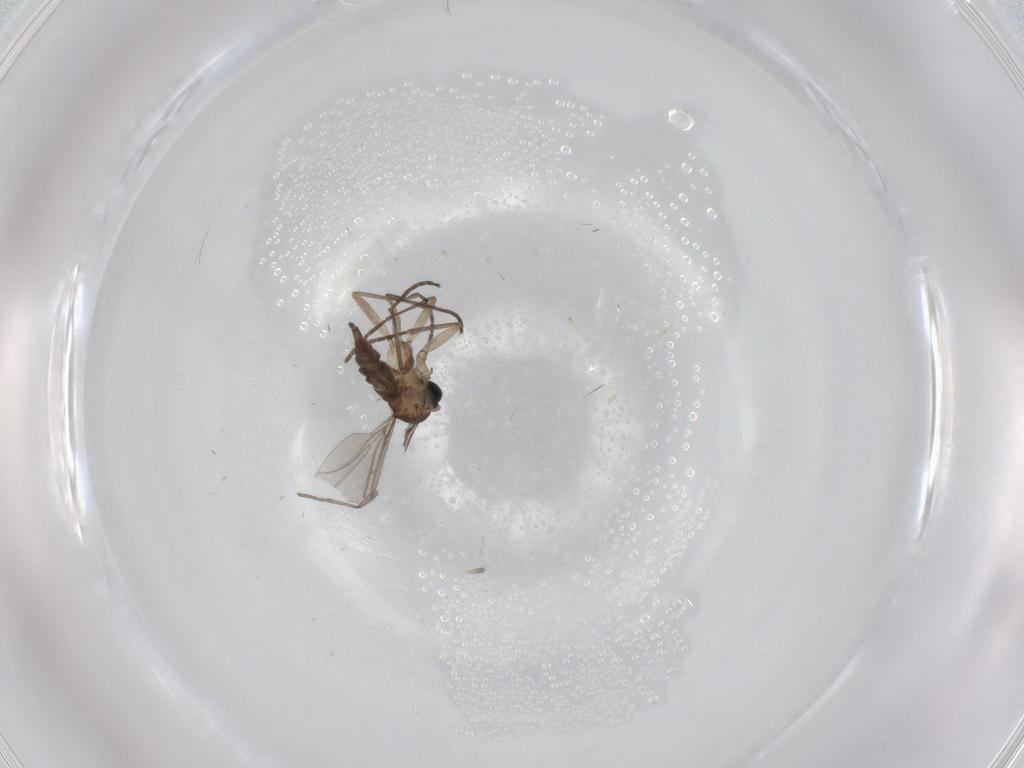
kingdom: Animalia
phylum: Arthropoda
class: Insecta
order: Diptera
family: Sciaridae
